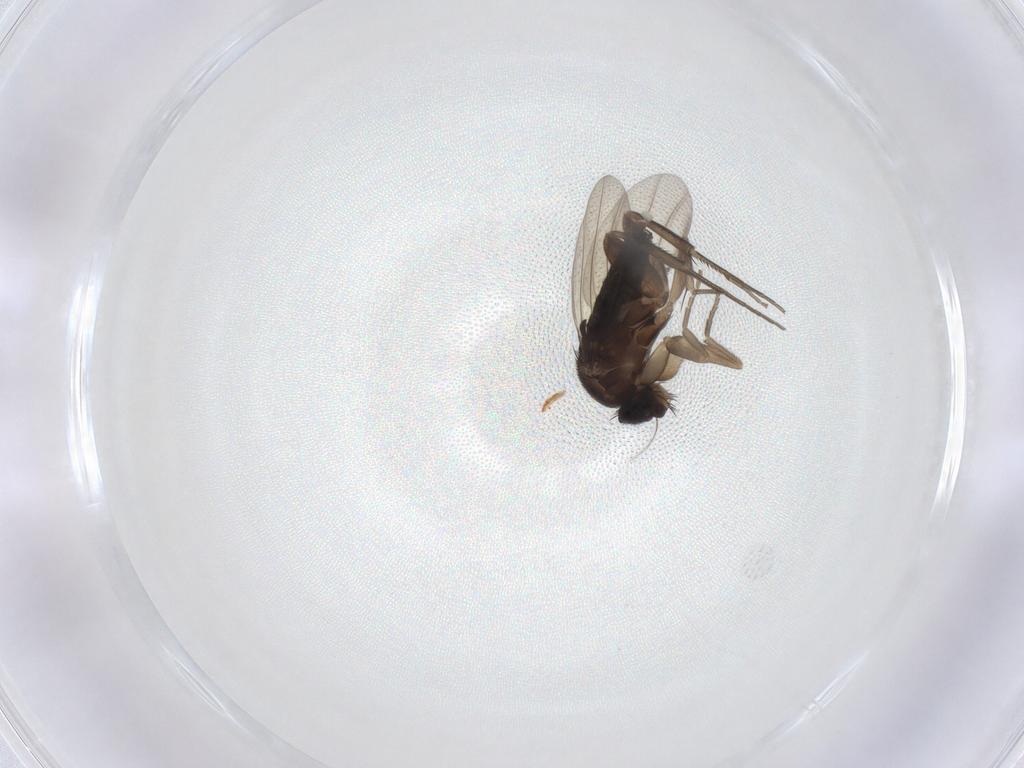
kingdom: Animalia
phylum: Arthropoda
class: Insecta
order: Diptera
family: Phoridae
